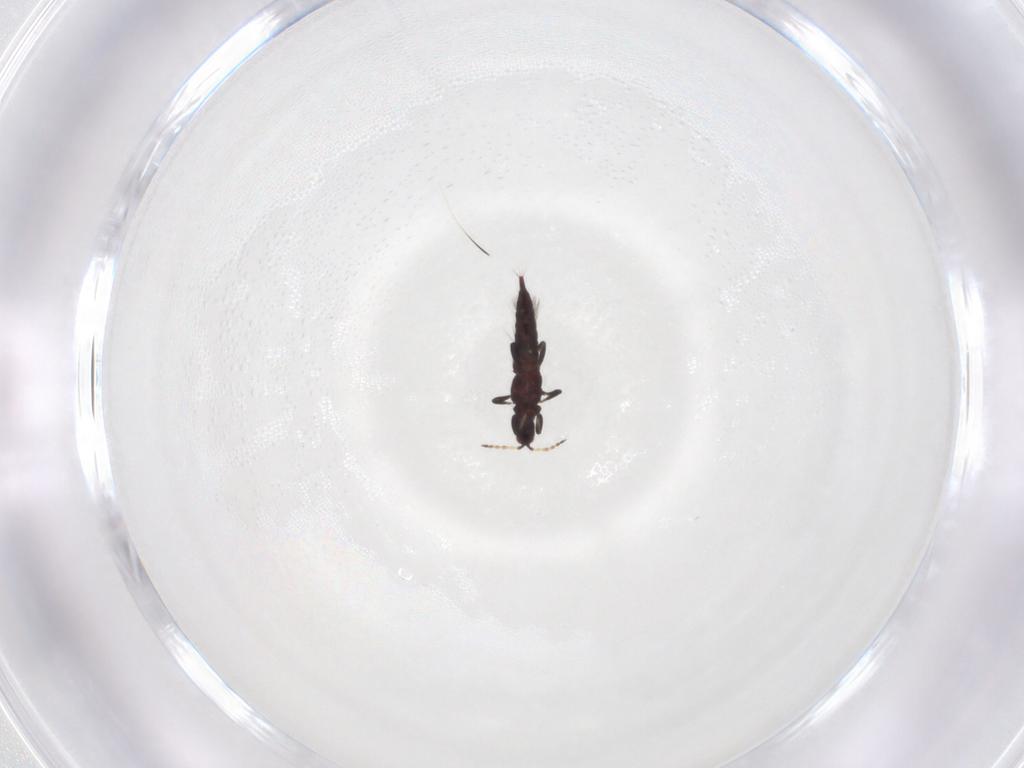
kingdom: Animalia
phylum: Arthropoda
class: Insecta
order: Thysanoptera
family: Phlaeothripidae
